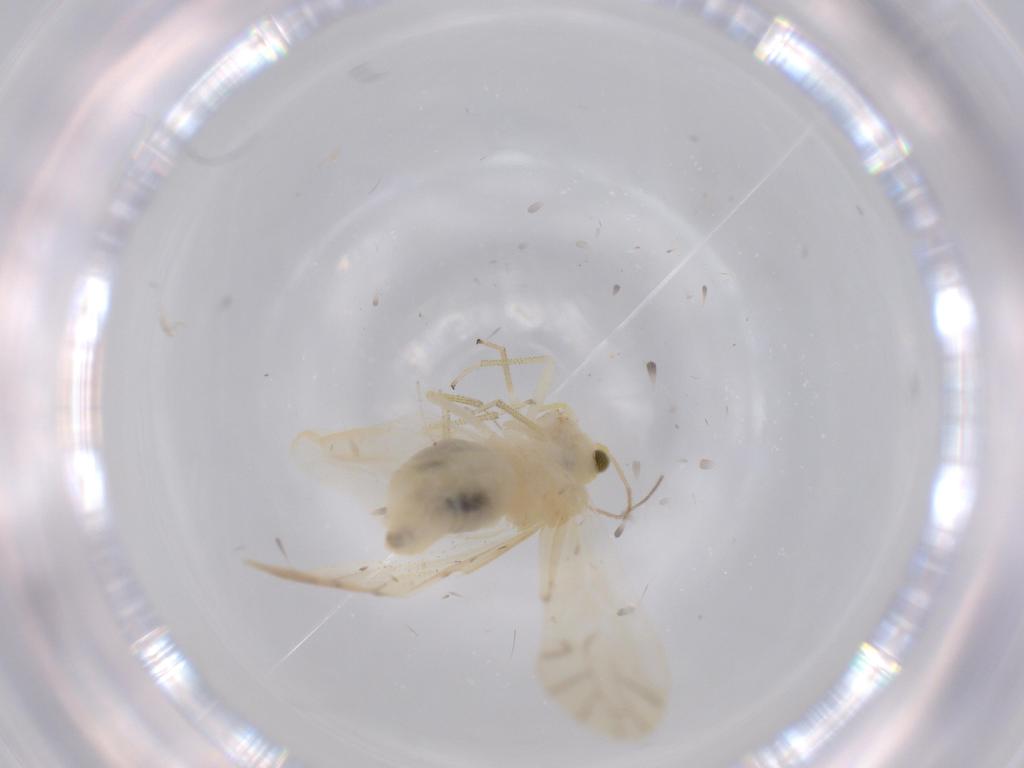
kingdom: Animalia
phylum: Arthropoda
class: Insecta
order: Psocodea
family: Caeciliusidae
